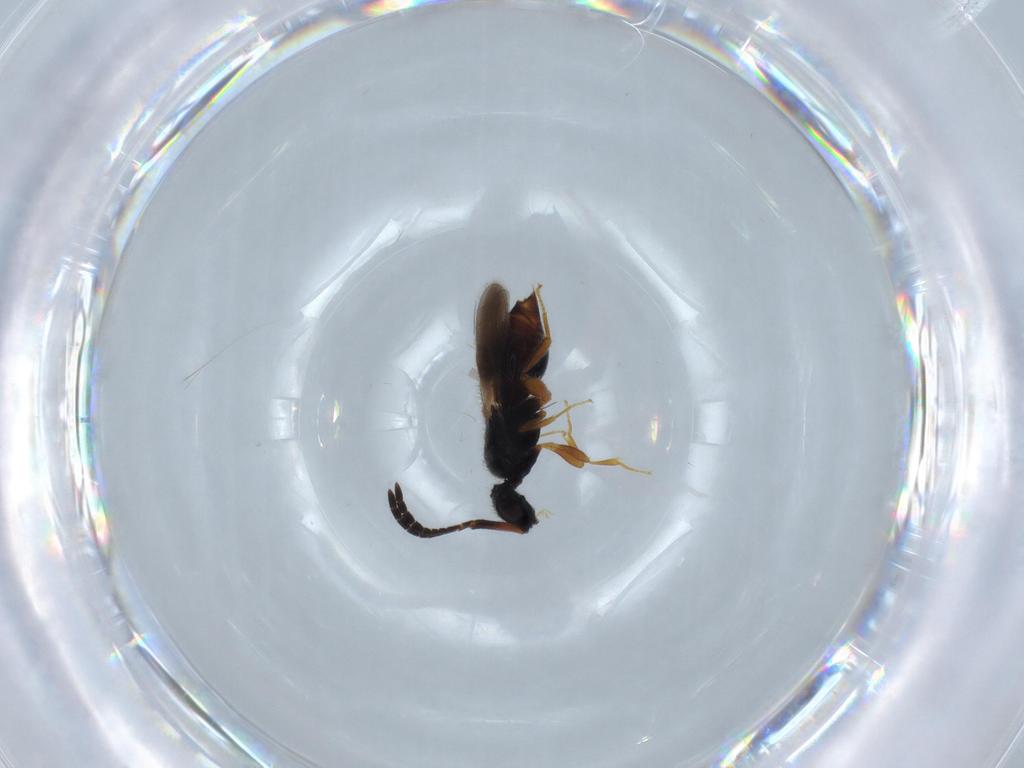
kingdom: Animalia
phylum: Arthropoda
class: Insecta
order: Hymenoptera
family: Ceraphronidae
